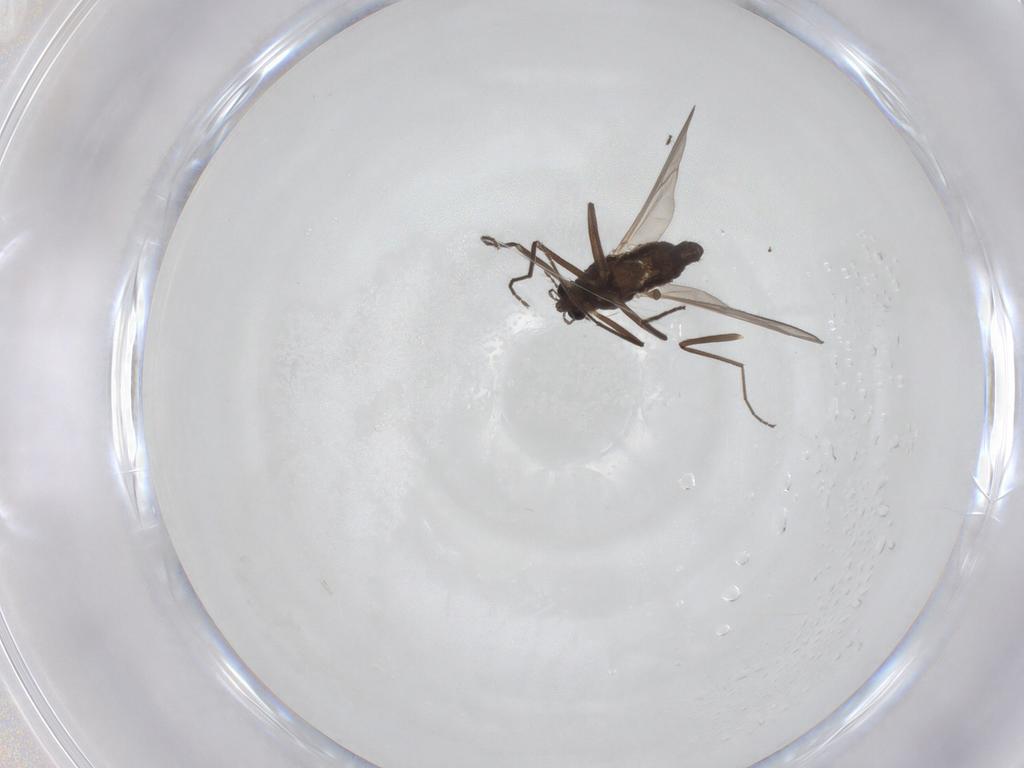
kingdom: Animalia
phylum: Arthropoda
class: Insecta
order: Diptera
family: Chironomidae
